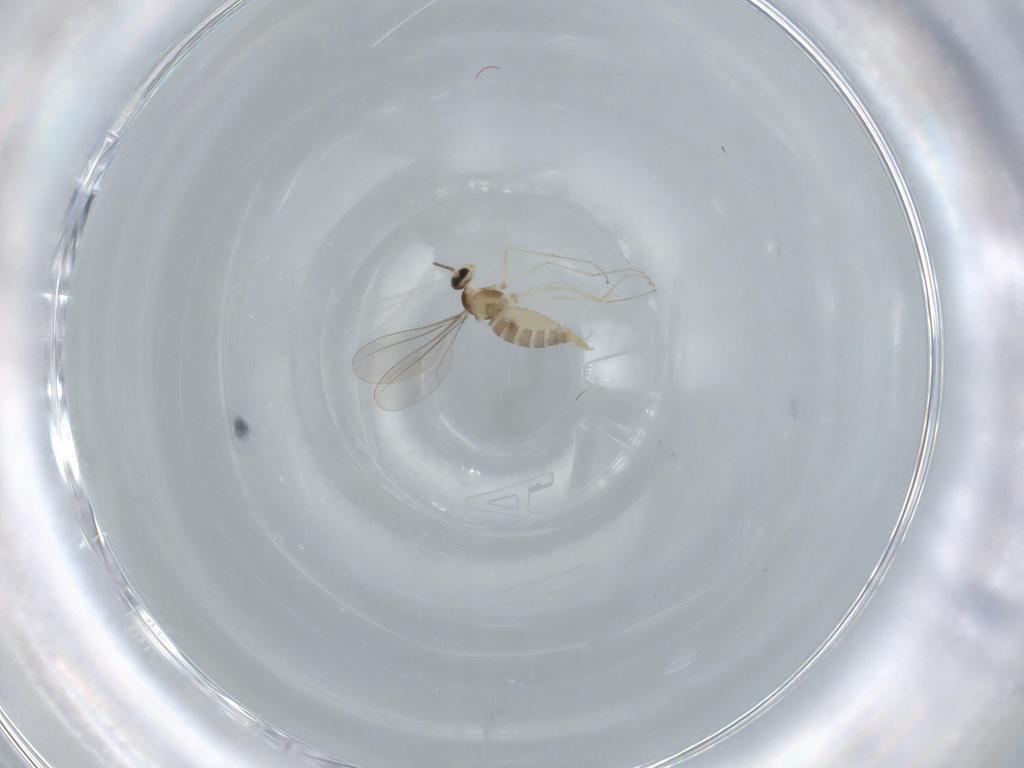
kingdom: Animalia
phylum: Arthropoda
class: Insecta
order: Diptera
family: Cecidomyiidae
